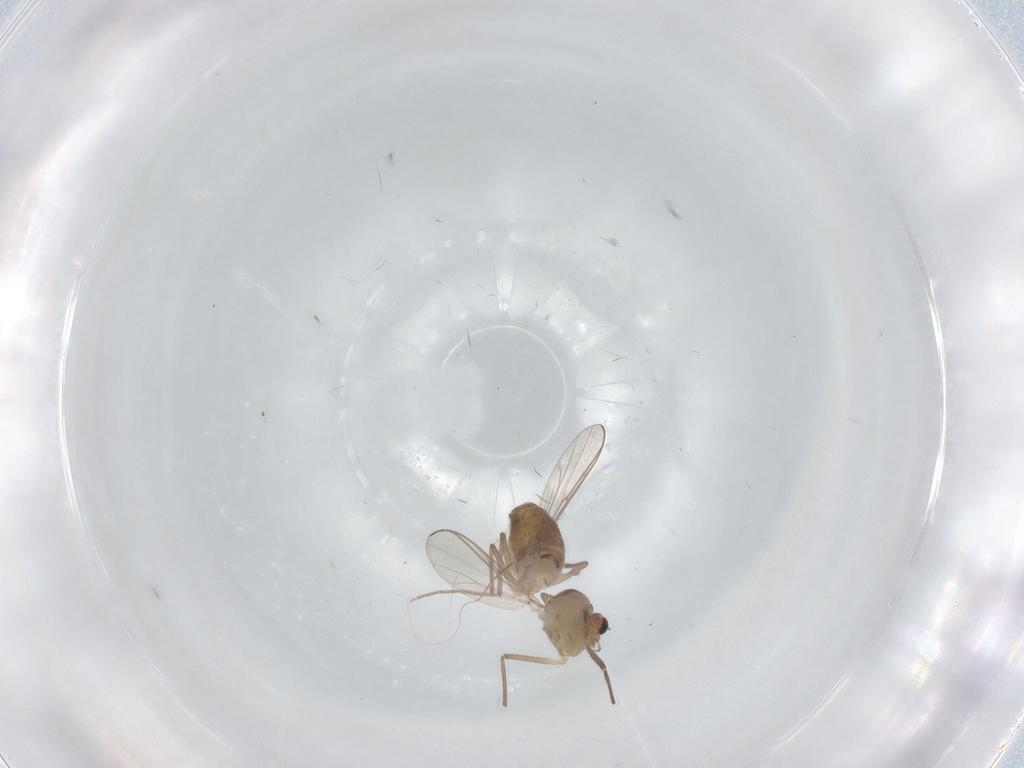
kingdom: Animalia
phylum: Arthropoda
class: Insecta
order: Diptera
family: Chironomidae
